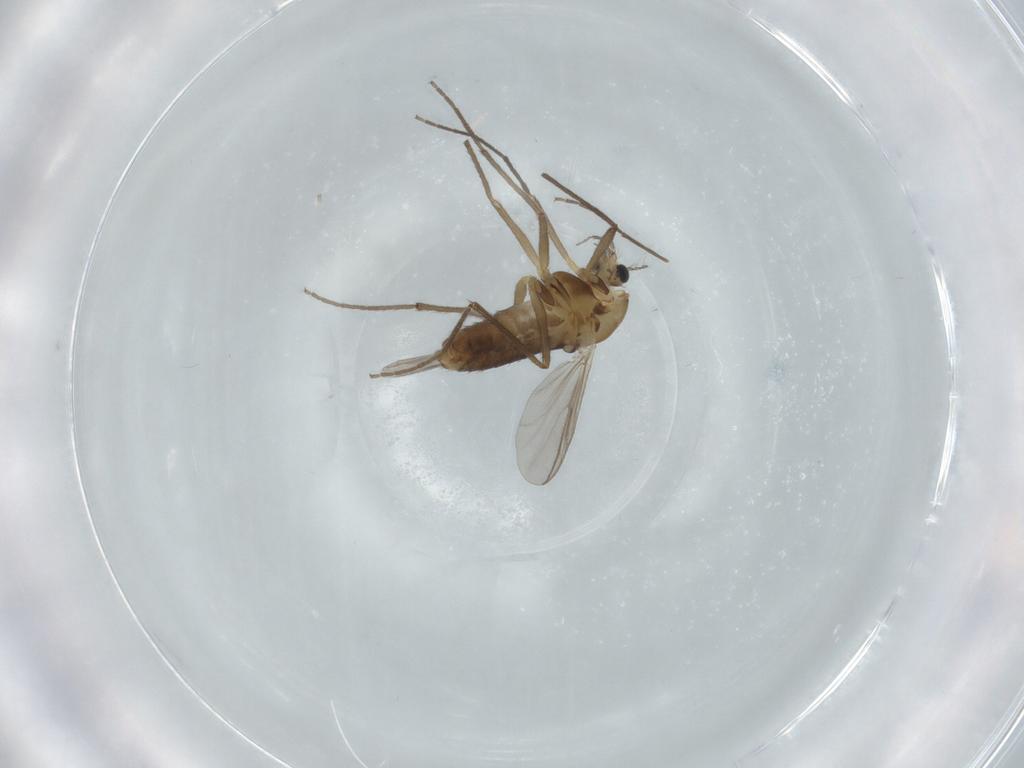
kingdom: Animalia
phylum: Arthropoda
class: Insecta
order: Diptera
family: Chironomidae
